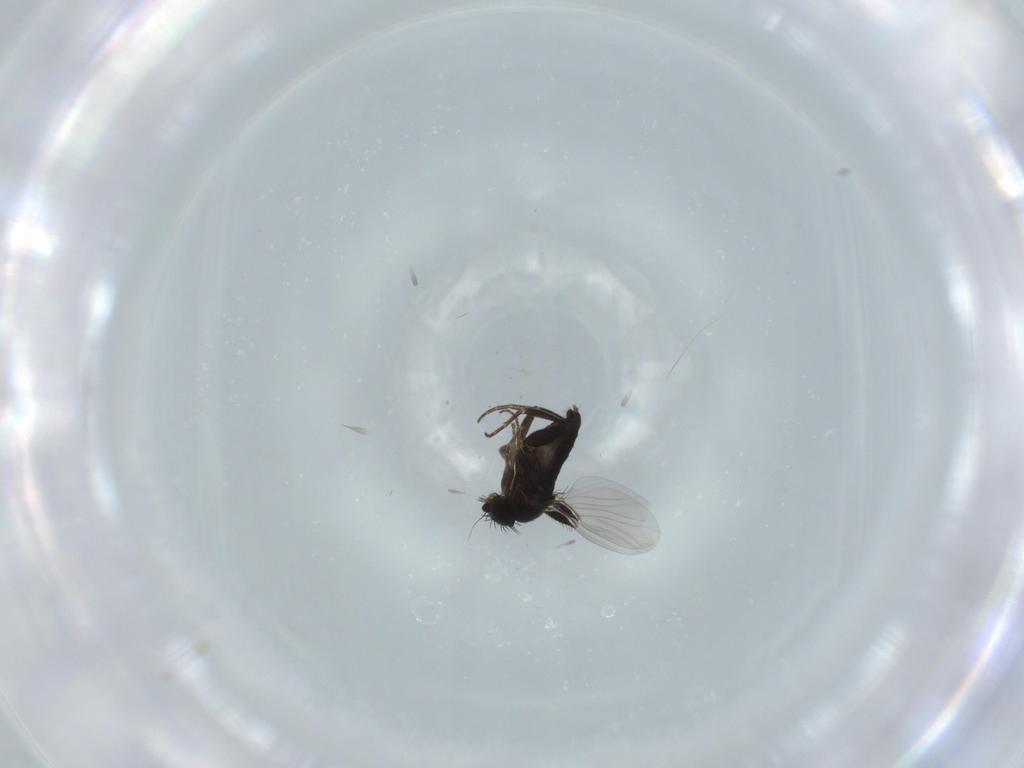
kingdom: Animalia
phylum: Arthropoda
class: Insecta
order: Diptera
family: Phoridae
